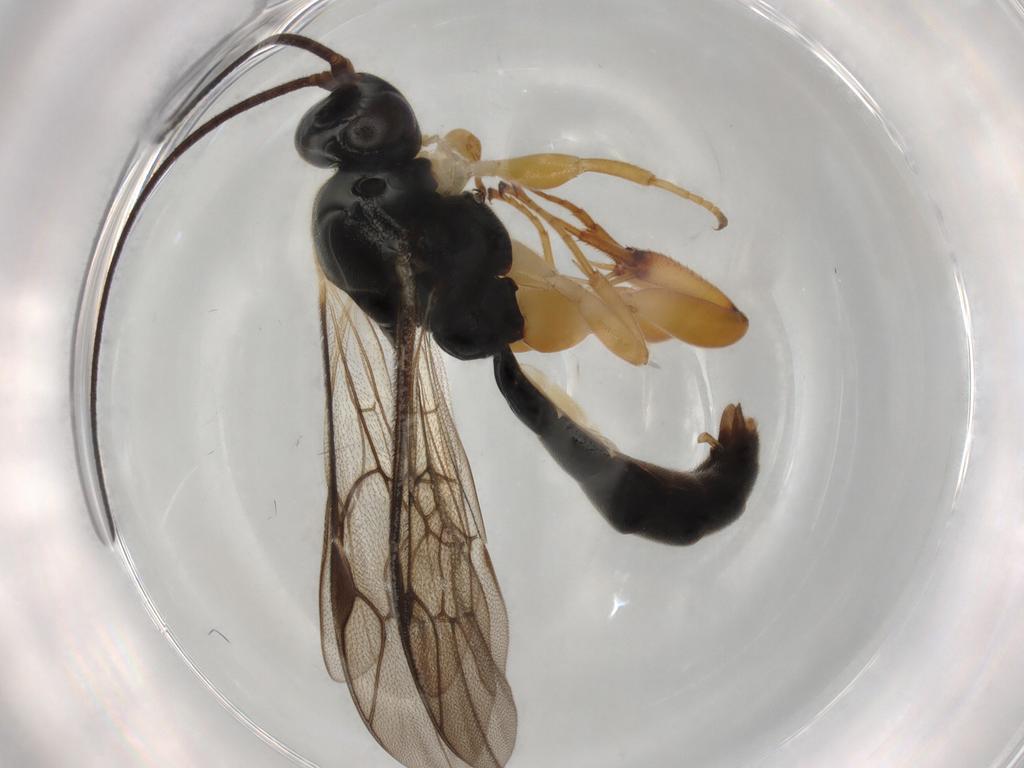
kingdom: Animalia
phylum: Arthropoda
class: Insecta
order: Hymenoptera
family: Ichneumonidae
